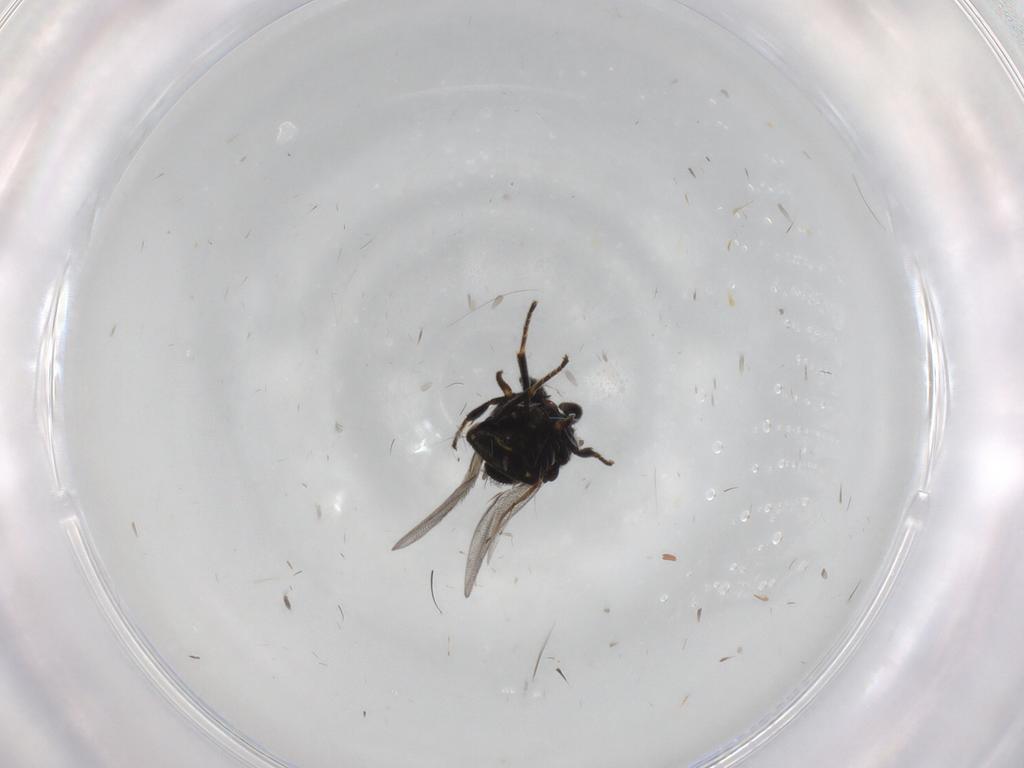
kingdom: Animalia
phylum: Arthropoda
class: Insecta
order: Hymenoptera
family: Encyrtidae
